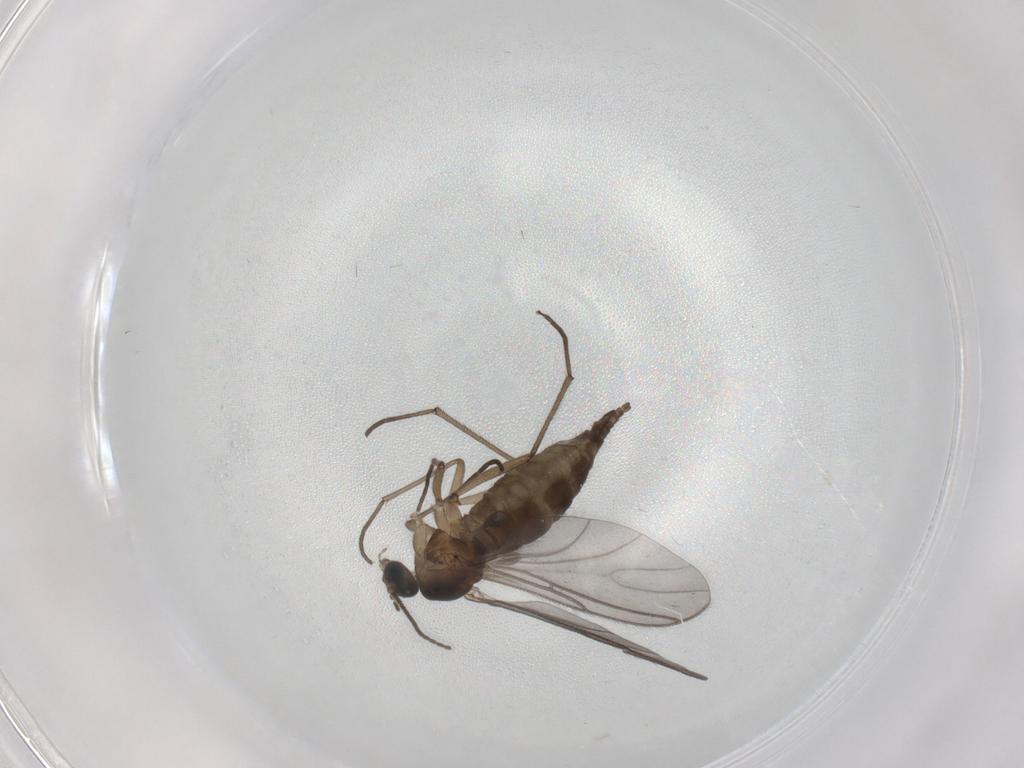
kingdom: Animalia
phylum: Arthropoda
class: Insecta
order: Diptera
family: Sciaridae
